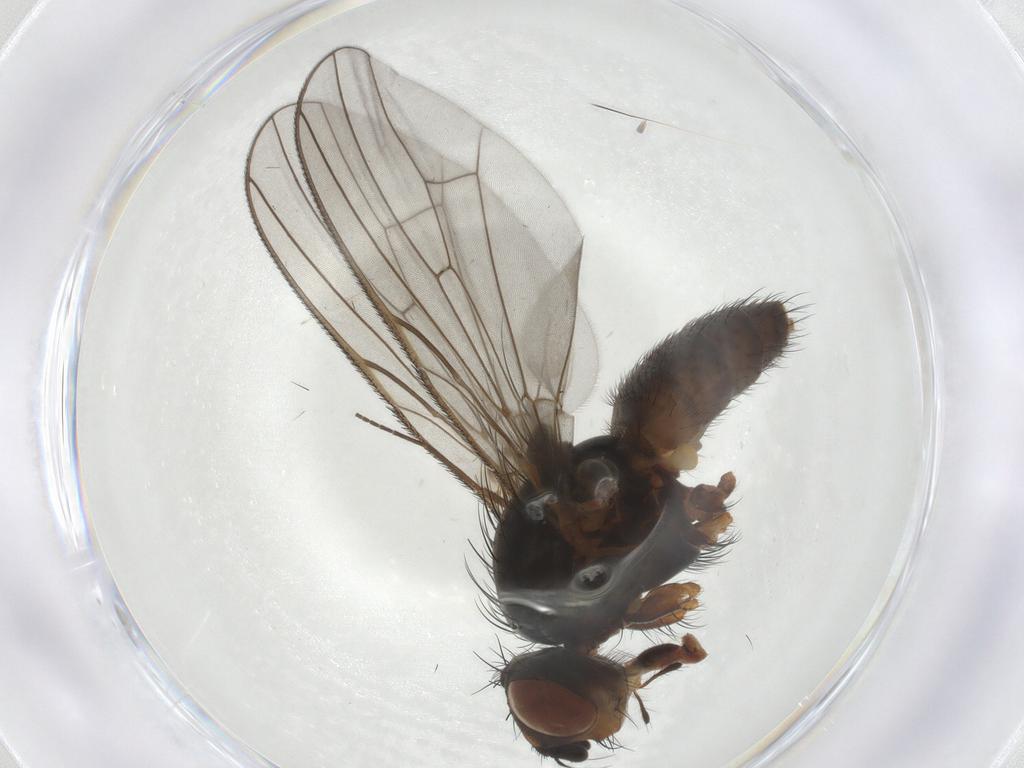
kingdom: Animalia
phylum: Arthropoda
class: Insecta
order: Diptera
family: Anthomyiidae
